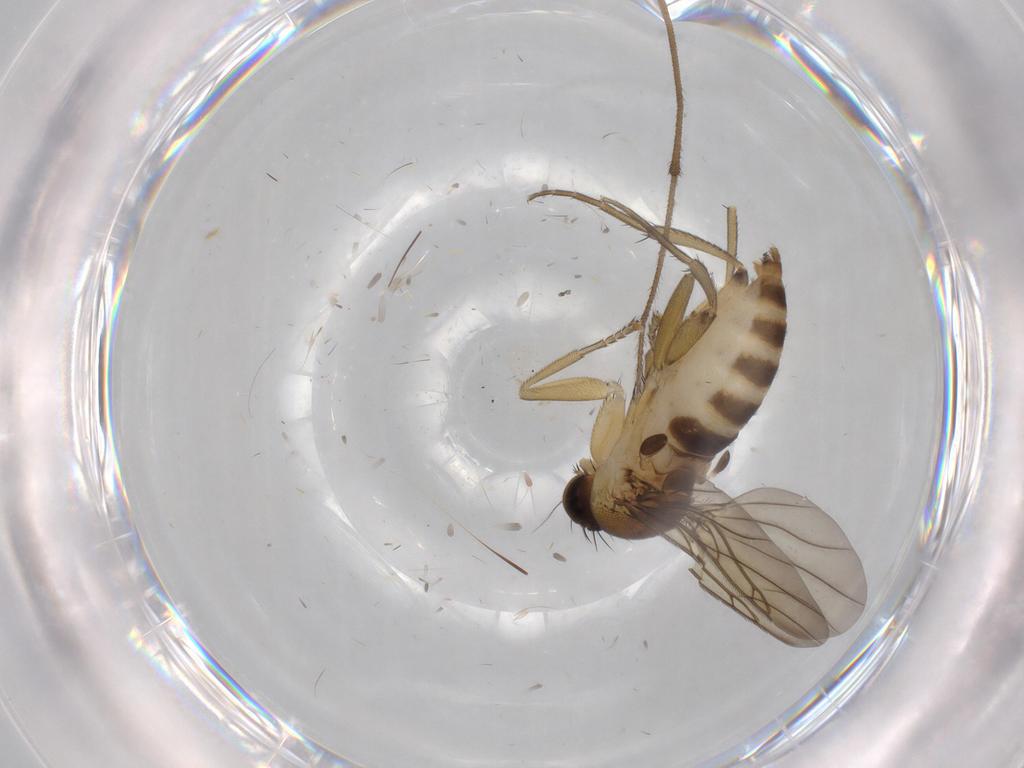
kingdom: Animalia
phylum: Arthropoda
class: Insecta
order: Diptera
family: Phoridae
